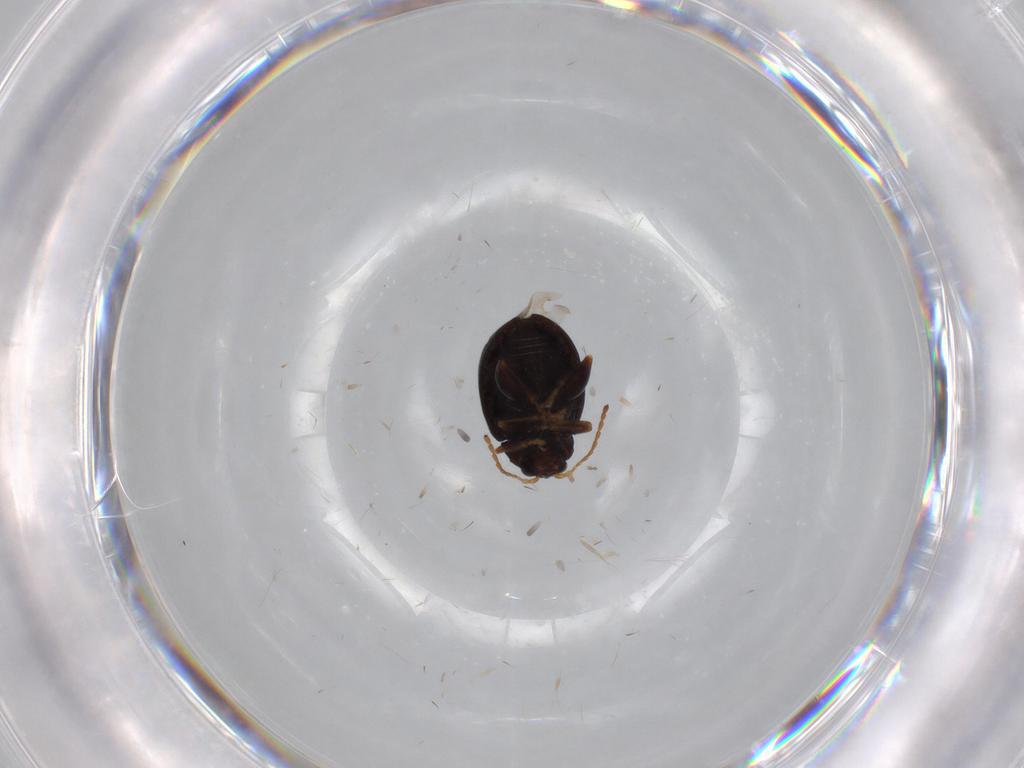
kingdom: Animalia
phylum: Arthropoda
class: Insecta
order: Coleoptera
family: Chrysomelidae
